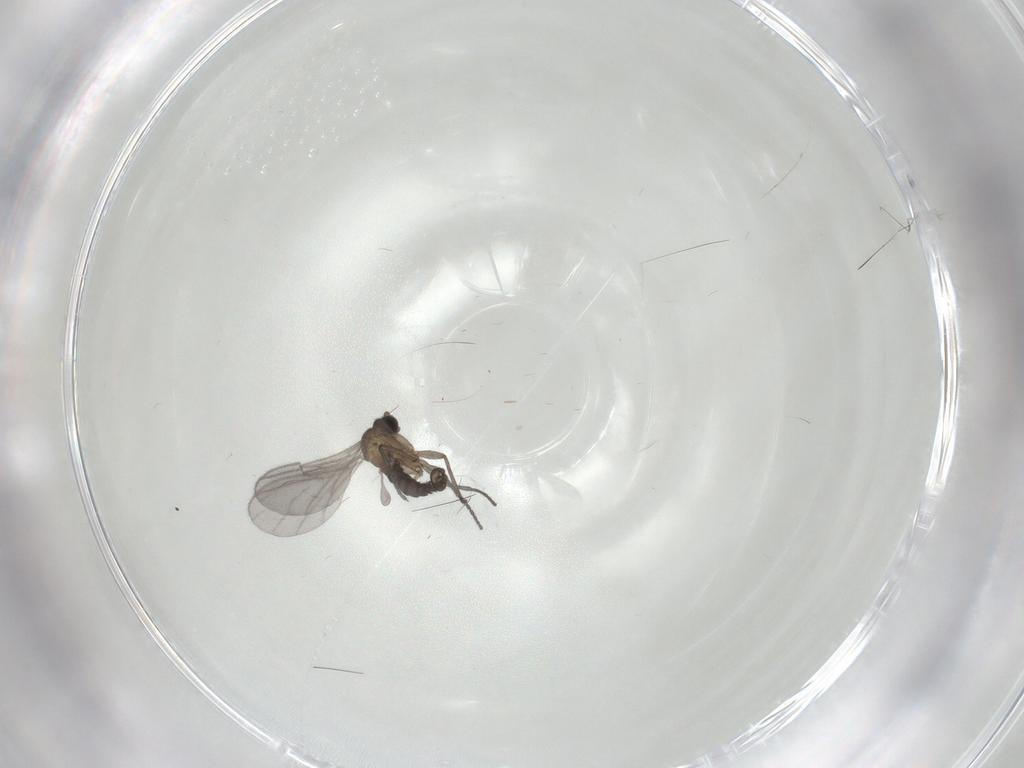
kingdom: Animalia
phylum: Arthropoda
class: Insecta
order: Diptera
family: Sciaridae
